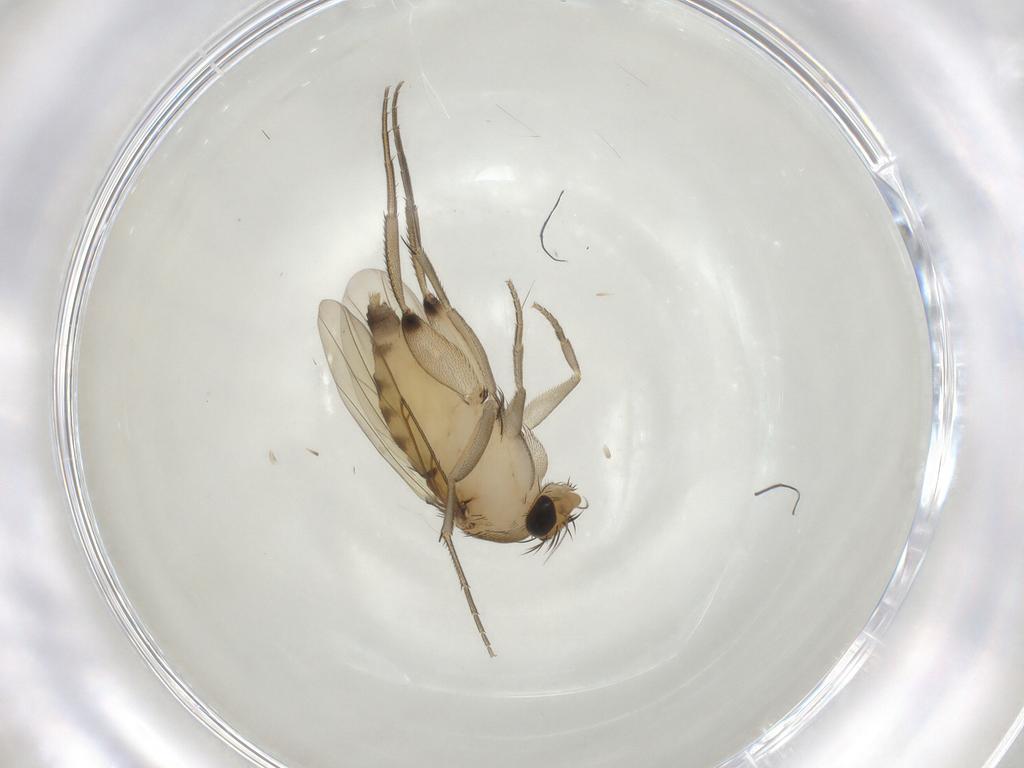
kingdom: Animalia
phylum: Arthropoda
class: Insecta
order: Diptera
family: Phoridae
